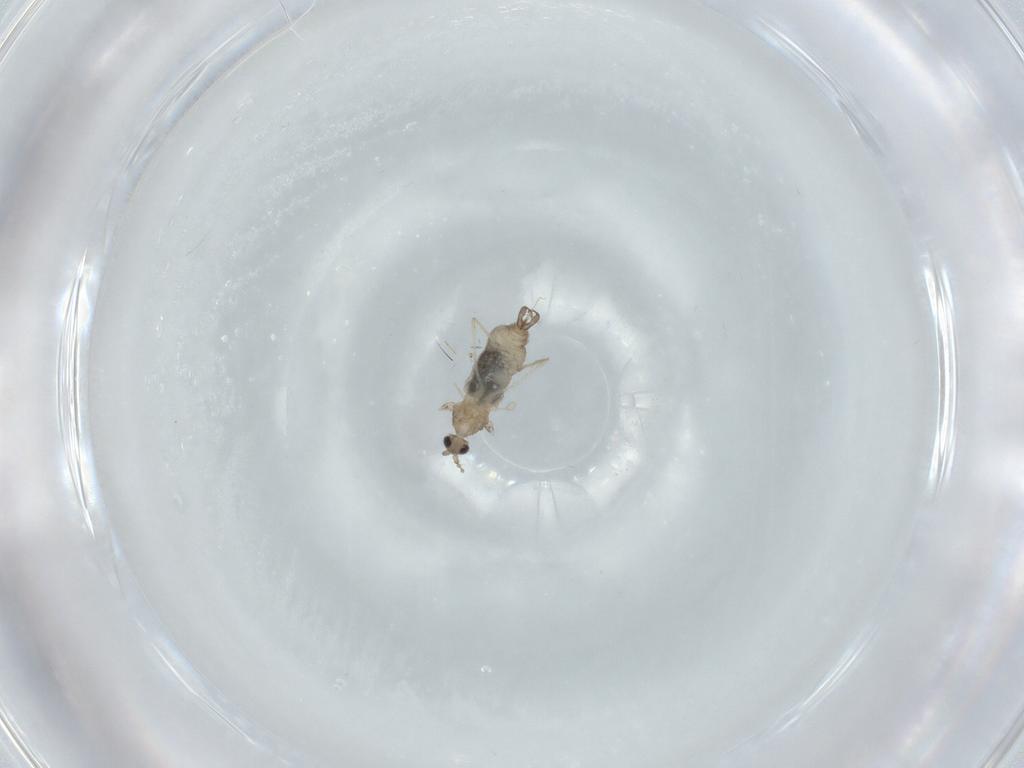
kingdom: Animalia
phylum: Arthropoda
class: Insecta
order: Diptera
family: Cecidomyiidae
